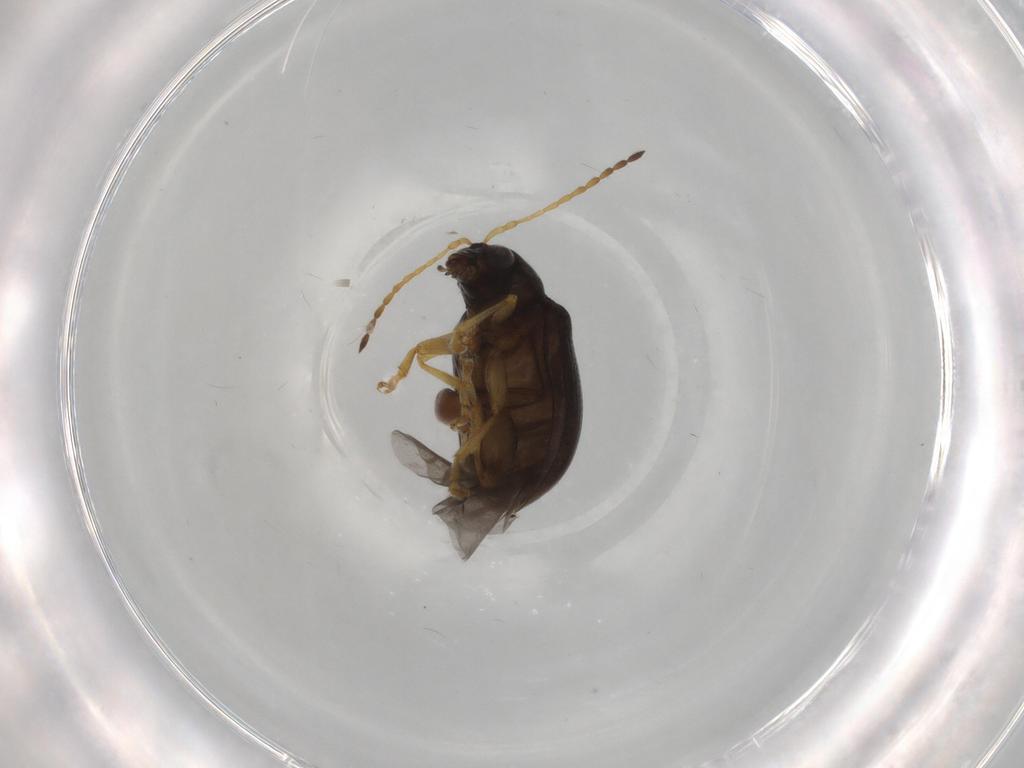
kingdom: Animalia
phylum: Arthropoda
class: Insecta
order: Coleoptera
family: Chrysomelidae
